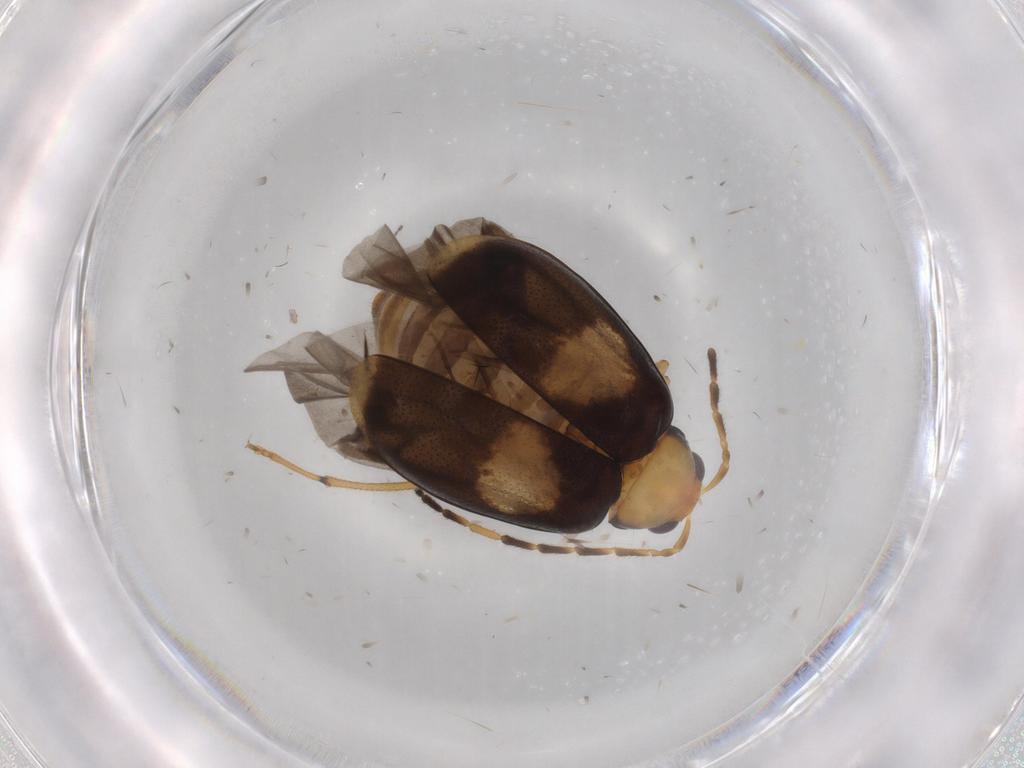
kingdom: Animalia
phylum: Arthropoda
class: Insecta
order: Coleoptera
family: Chrysomelidae
